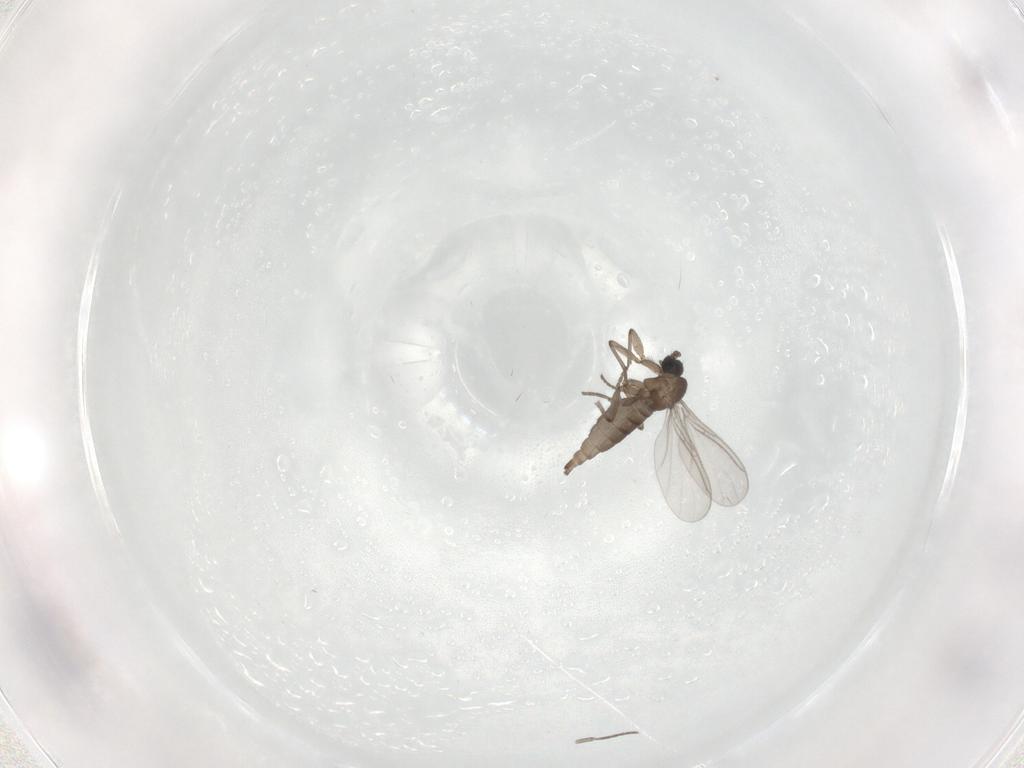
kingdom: Animalia
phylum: Arthropoda
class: Insecta
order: Diptera
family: Sciaridae
